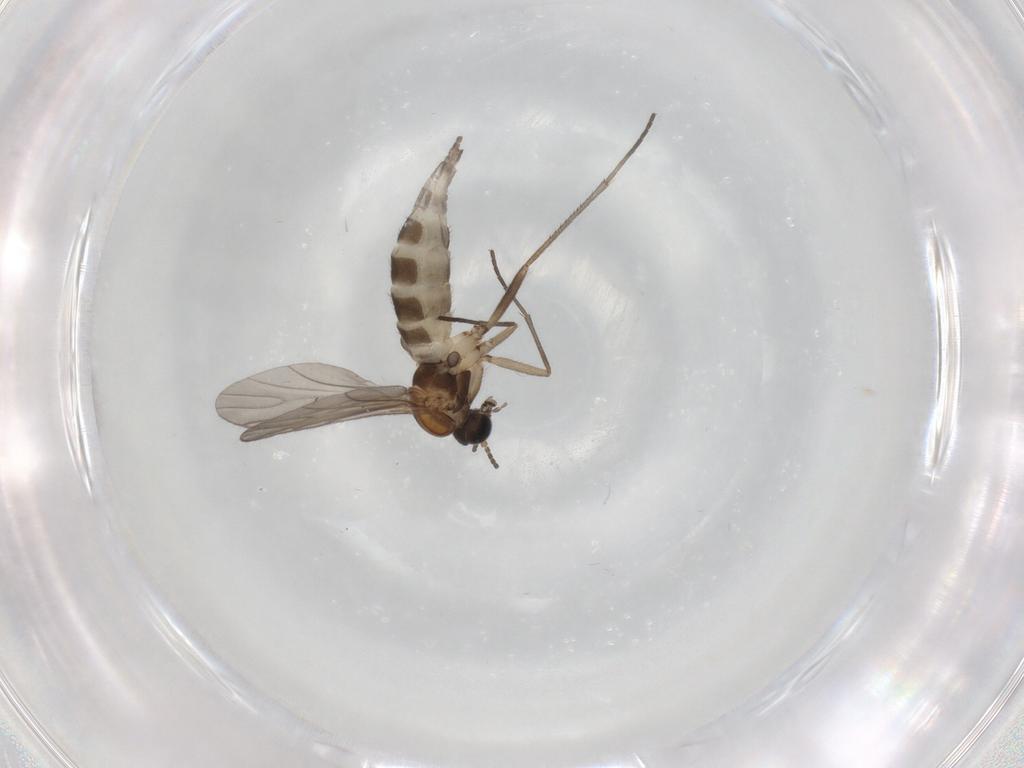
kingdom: Animalia
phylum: Arthropoda
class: Insecta
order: Diptera
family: Sciaridae
